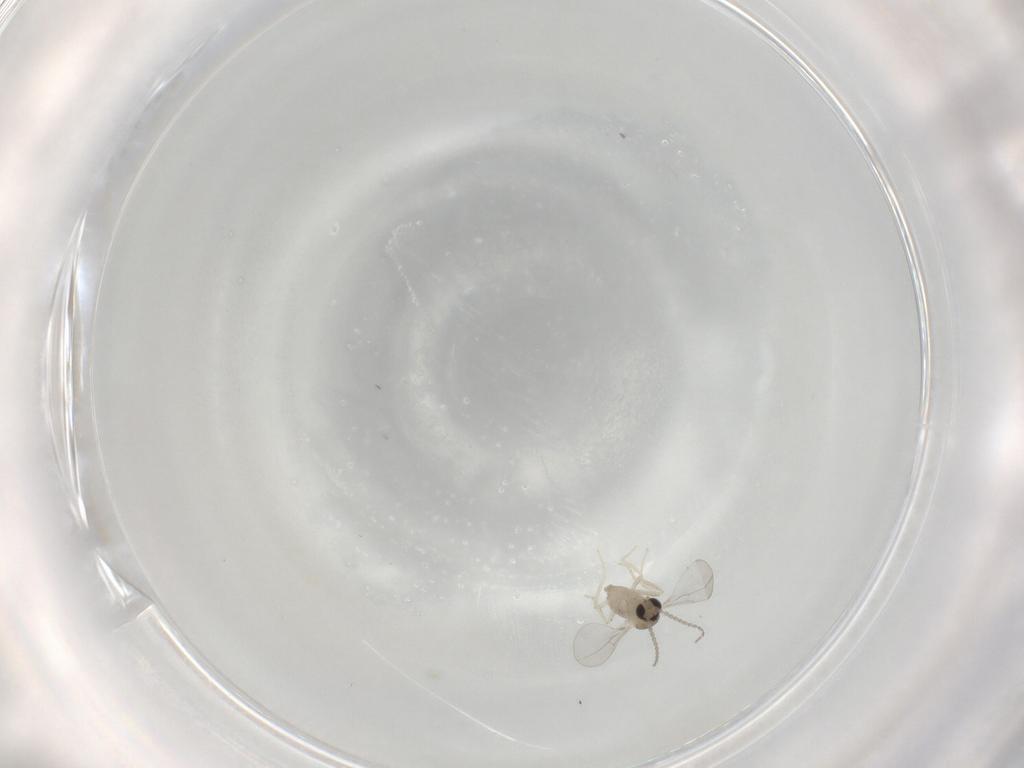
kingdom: Animalia
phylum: Arthropoda
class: Insecta
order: Diptera
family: Cecidomyiidae
